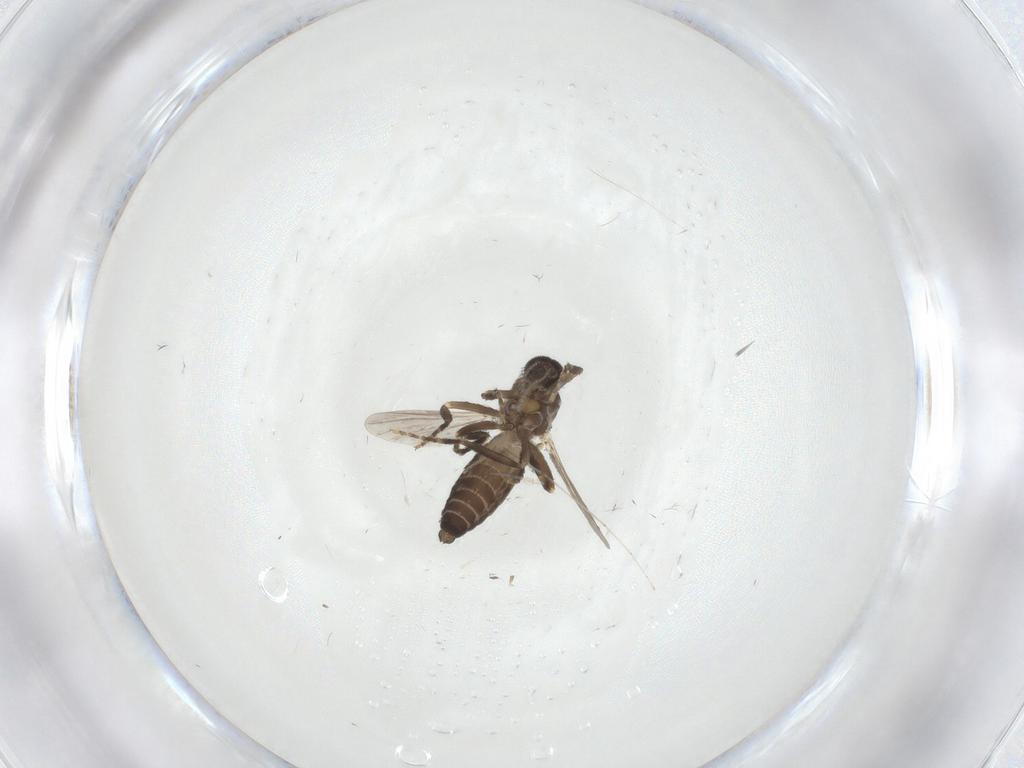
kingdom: Animalia
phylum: Arthropoda
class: Insecta
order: Diptera
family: Ceratopogonidae
